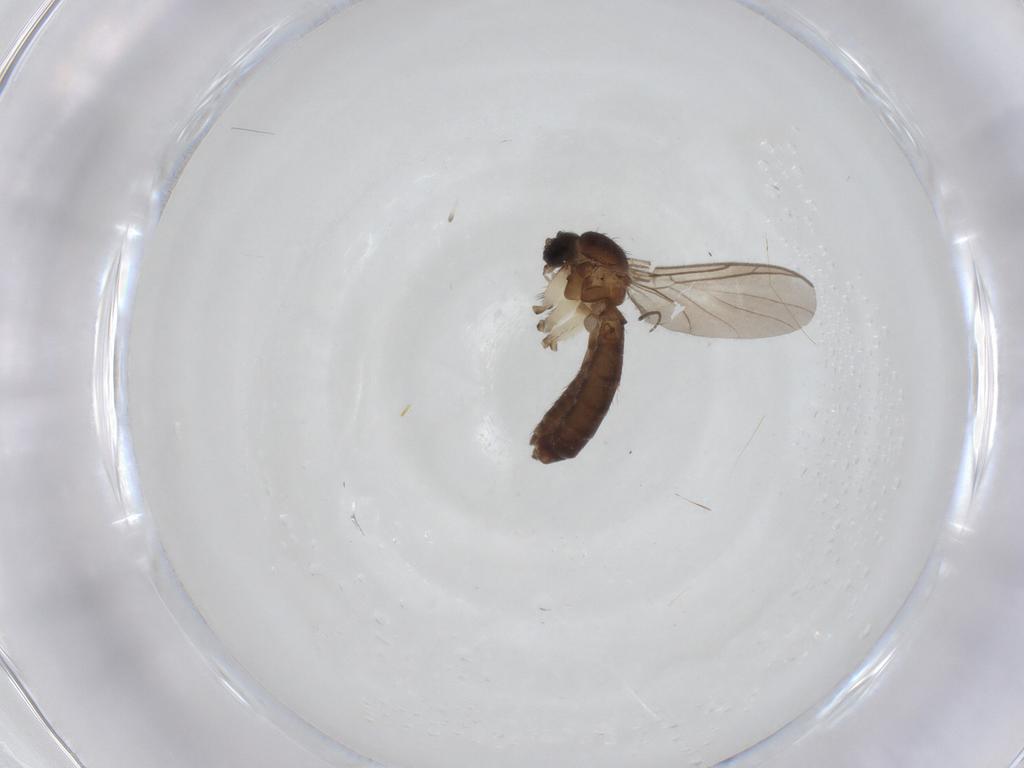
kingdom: Animalia
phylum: Arthropoda
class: Insecta
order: Diptera
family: Keroplatidae
